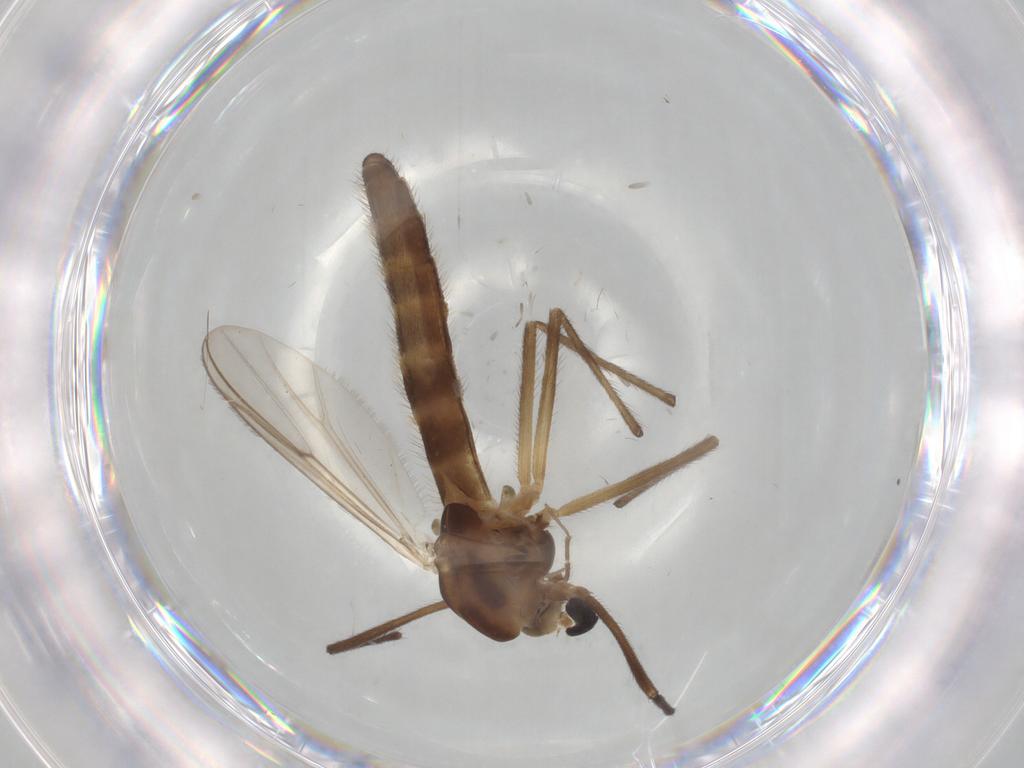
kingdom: Animalia
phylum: Arthropoda
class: Insecta
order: Diptera
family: Chironomidae
